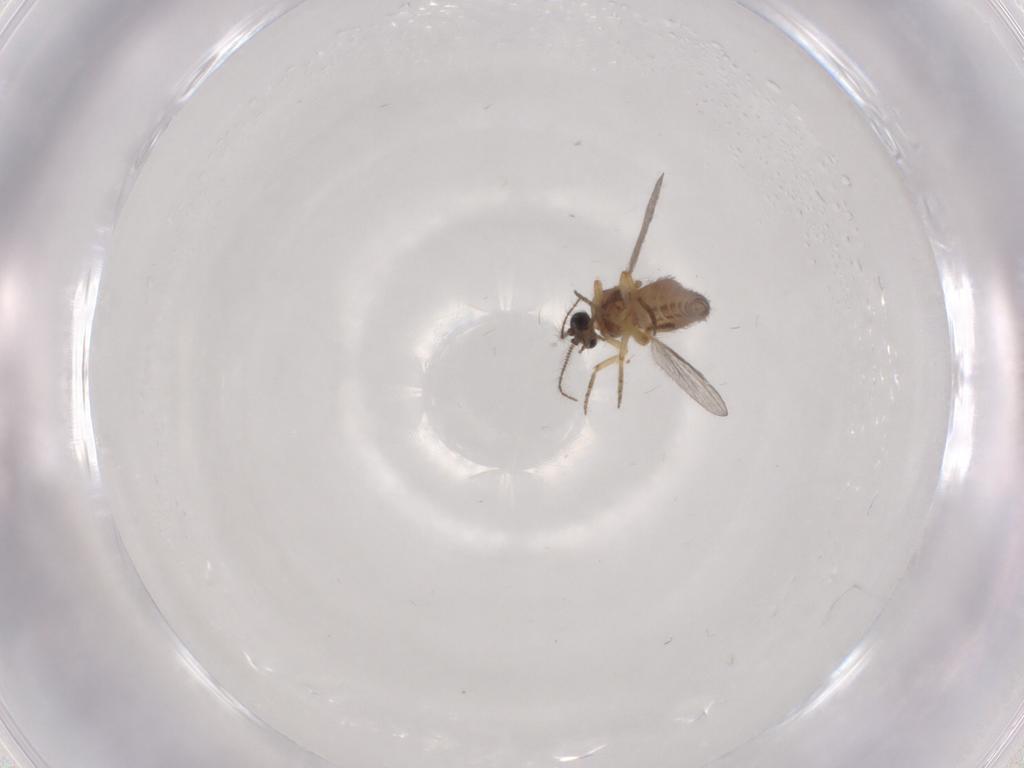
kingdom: Animalia
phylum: Arthropoda
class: Insecta
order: Diptera
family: Ceratopogonidae
